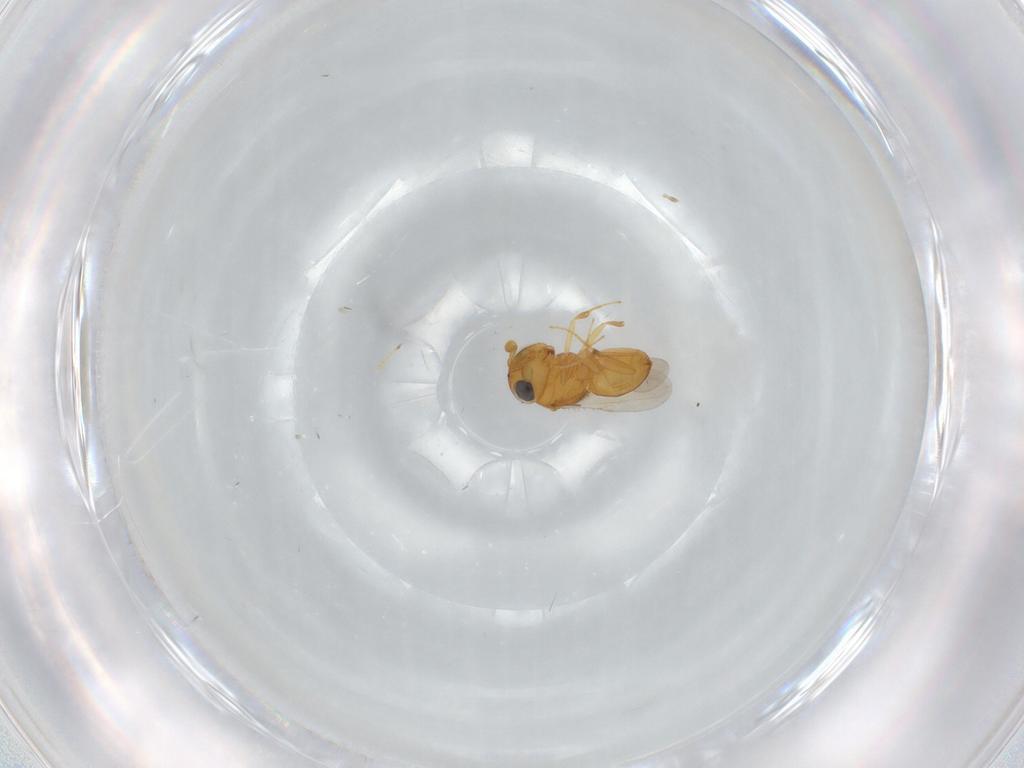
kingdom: Animalia
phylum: Arthropoda
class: Insecta
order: Hymenoptera
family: Scelionidae
